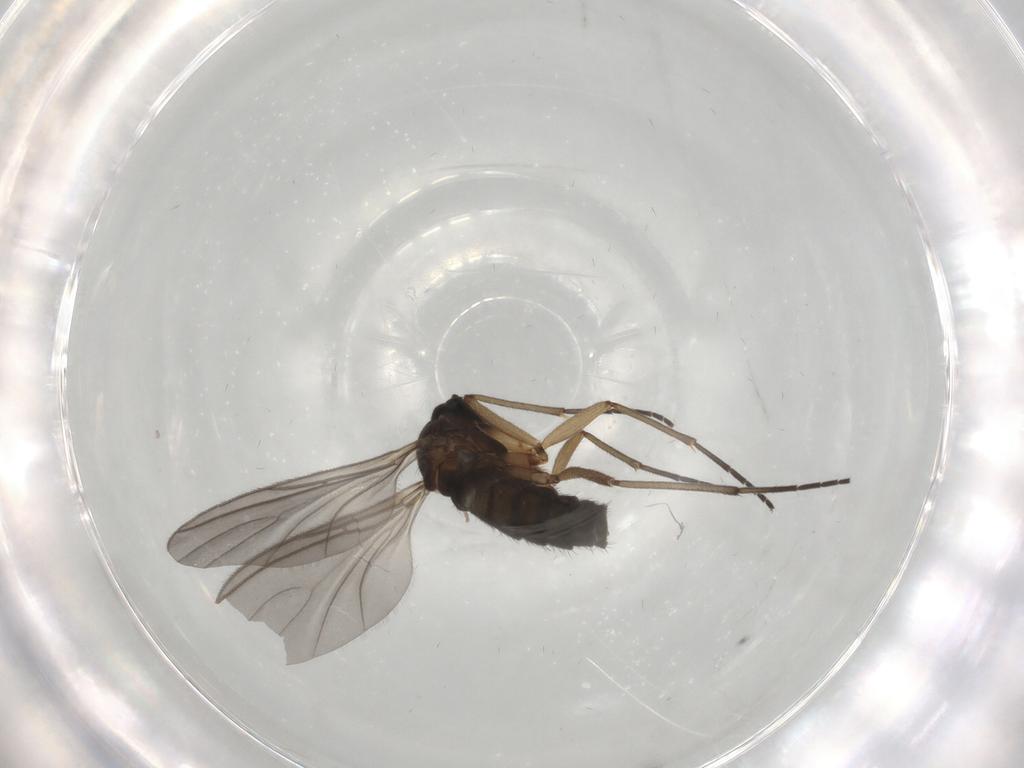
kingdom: Animalia
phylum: Arthropoda
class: Insecta
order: Diptera
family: Sciaridae
